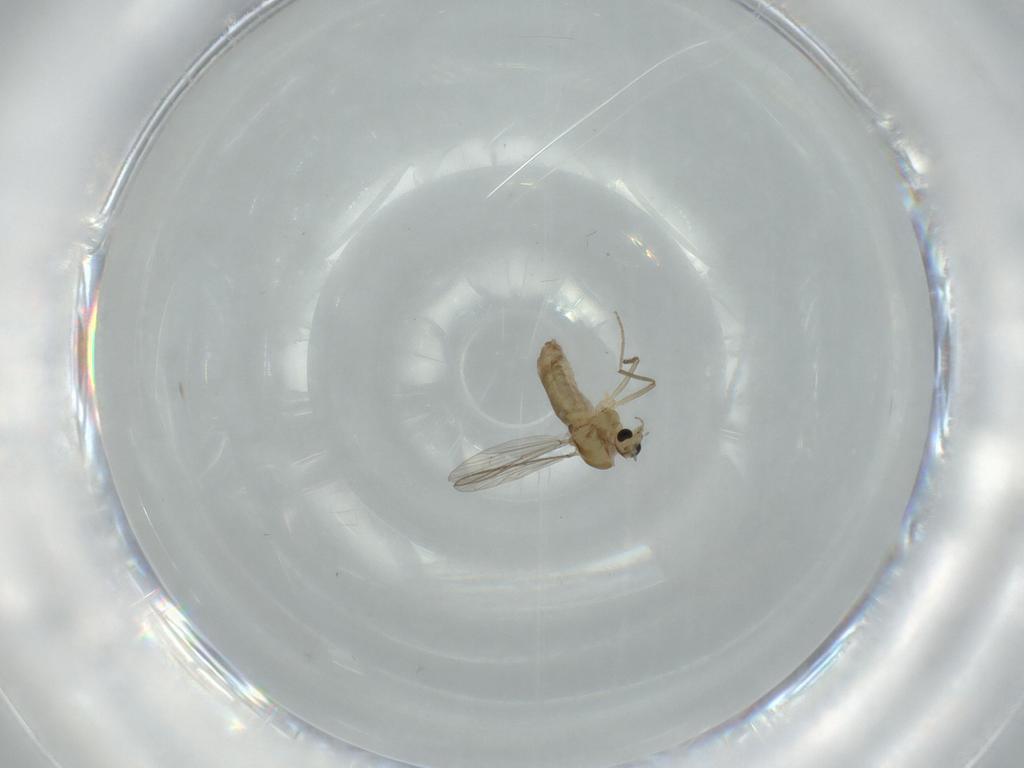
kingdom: Animalia
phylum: Arthropoda
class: Insecta
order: Diptera
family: Chironomidae
